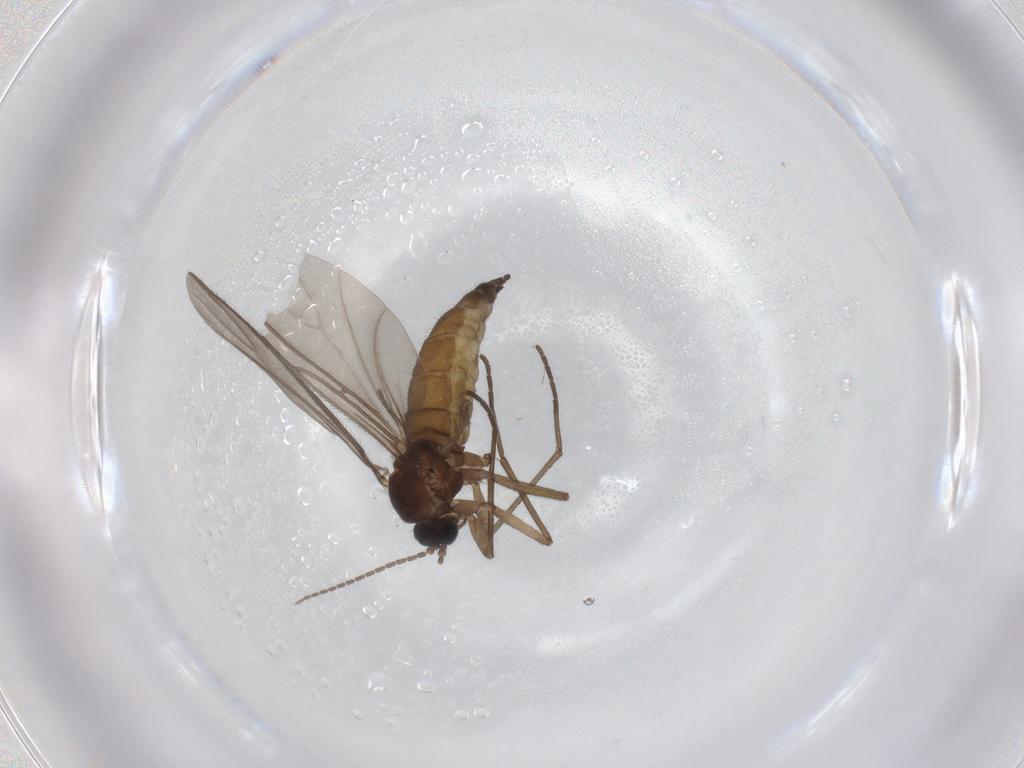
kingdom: Animalia
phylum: Arthropoda
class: Insecta
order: Diptera
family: Sciaridae
